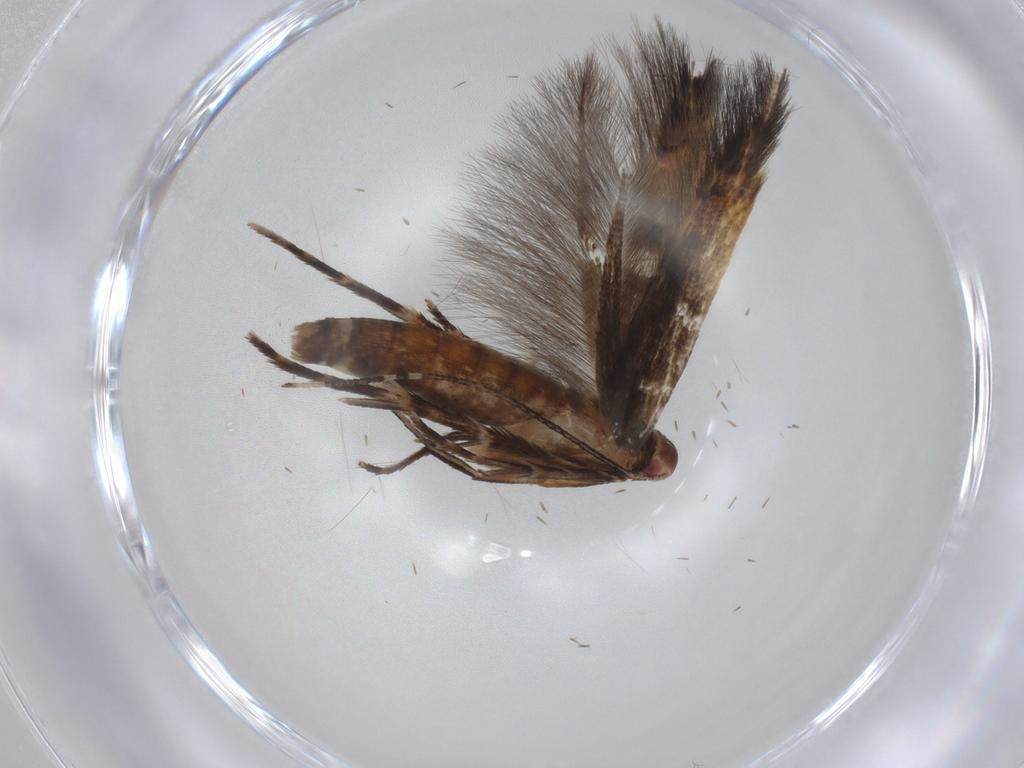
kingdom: Animalia
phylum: Arthropoda
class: Insecta
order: Lepidoptera
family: Cosmopterigidae
